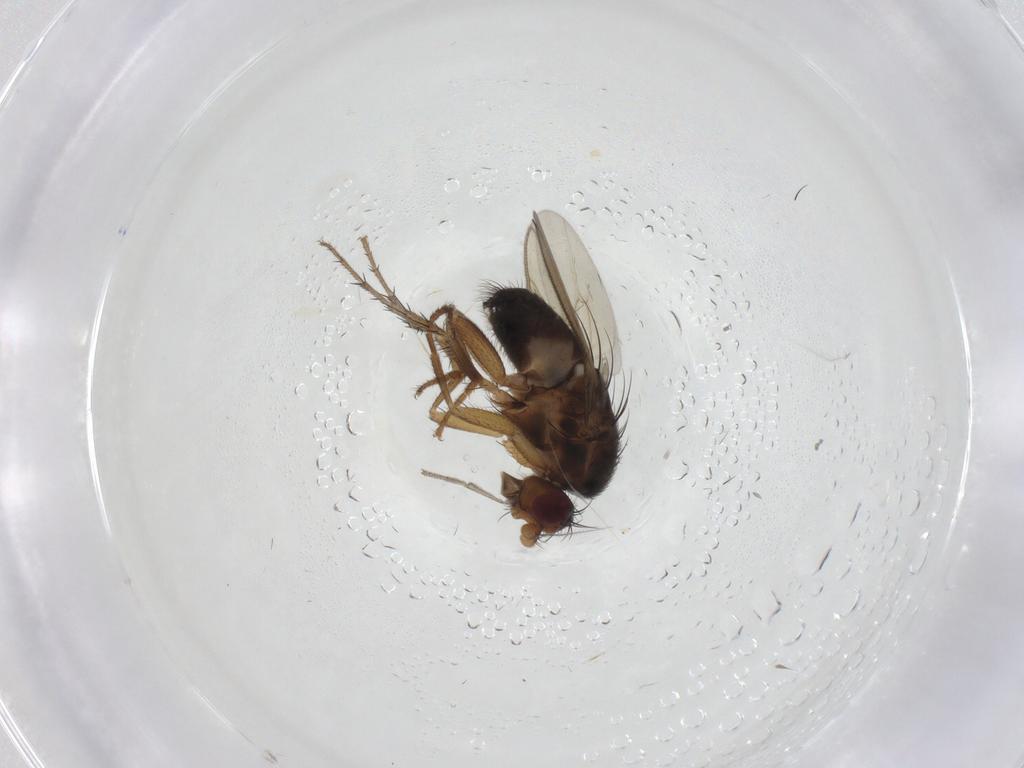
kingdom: Animalia
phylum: Arthropoda
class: Insecta
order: Diptera
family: Sphaeroceridae
